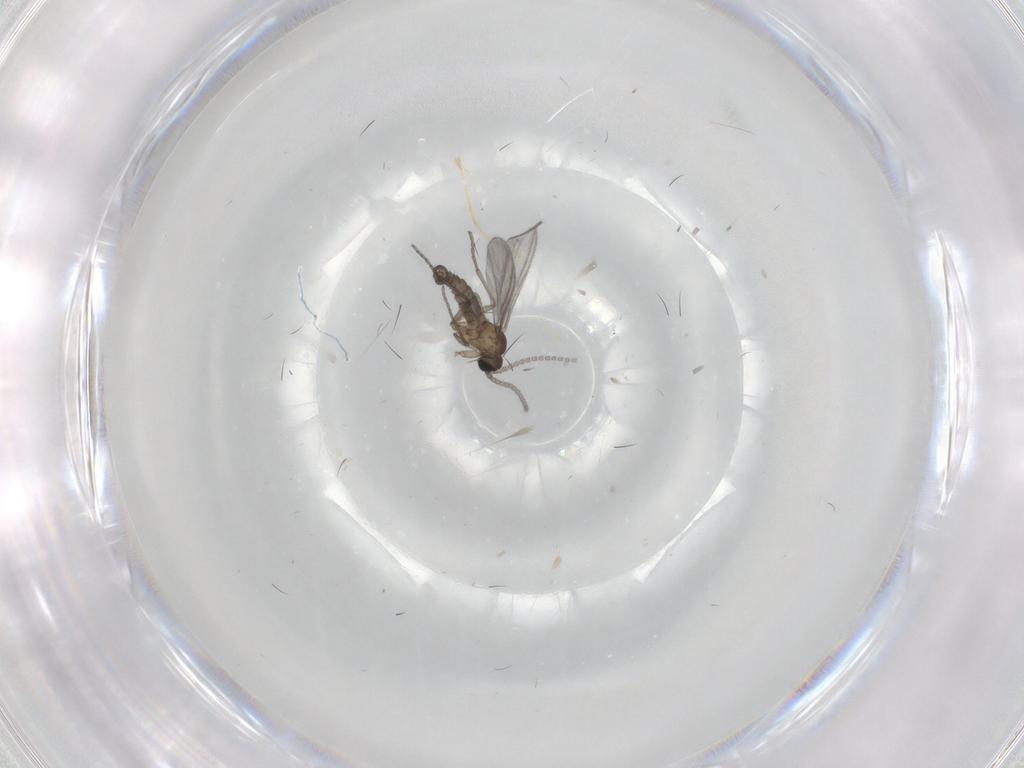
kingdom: Animalia
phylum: Arthropoda
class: Insecta
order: Diptera
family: Sciaridae
